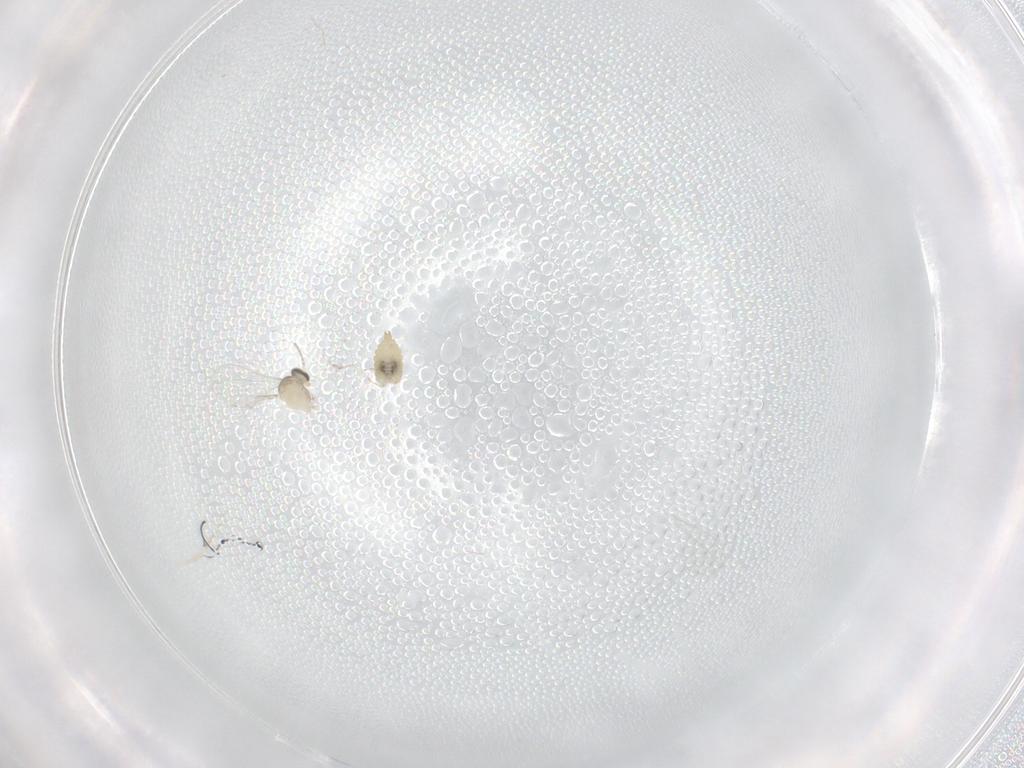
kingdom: Animalia
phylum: Arthropoda
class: Insecta
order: Diptera
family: Cecidomyiidae
